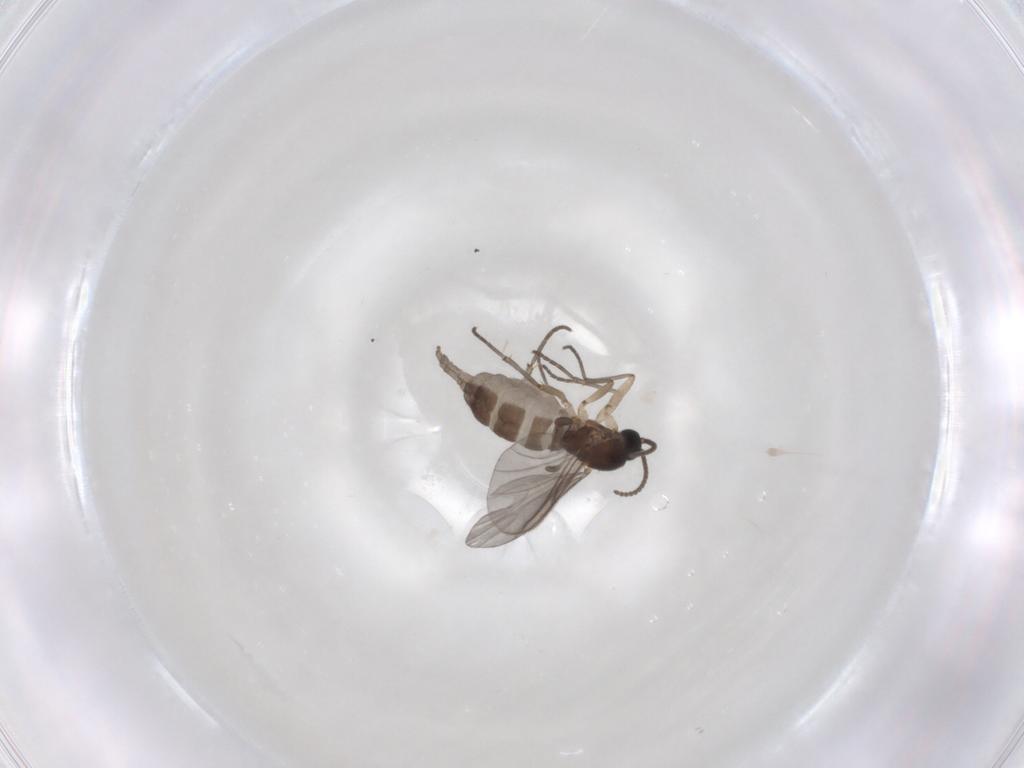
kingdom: Animalia
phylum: Arthropoda
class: Insecta
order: Diptera
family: Sciaridae
